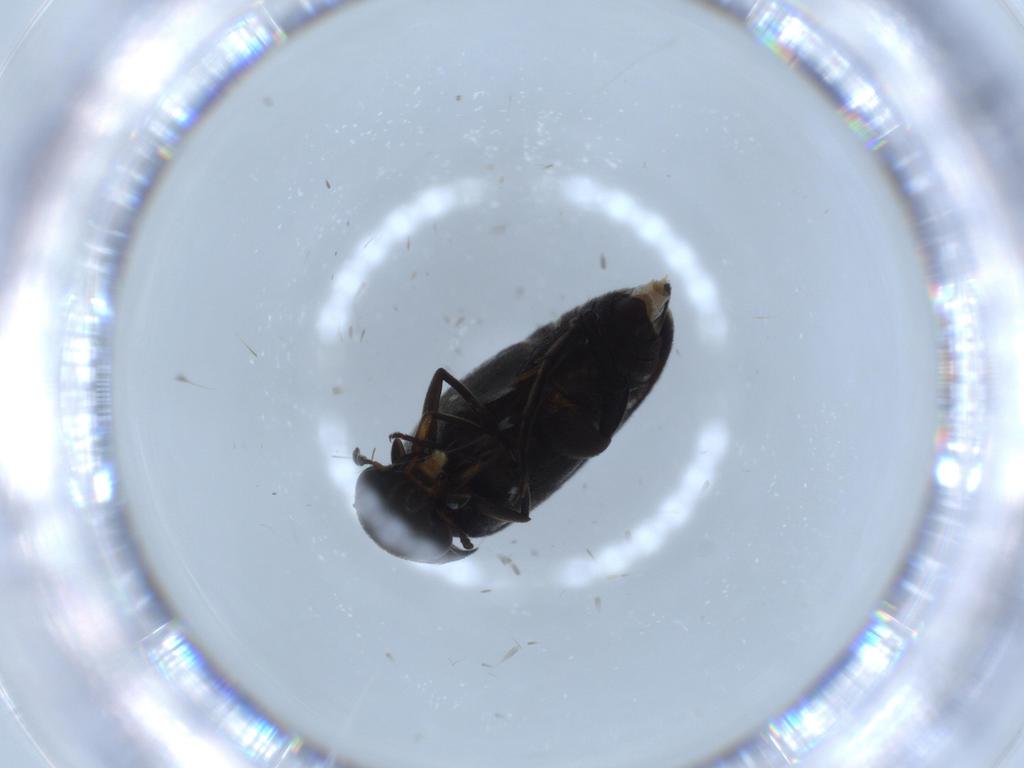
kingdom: Animalia
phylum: Arthropoda
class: Insecta
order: Coleoptera
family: Mordellidae
